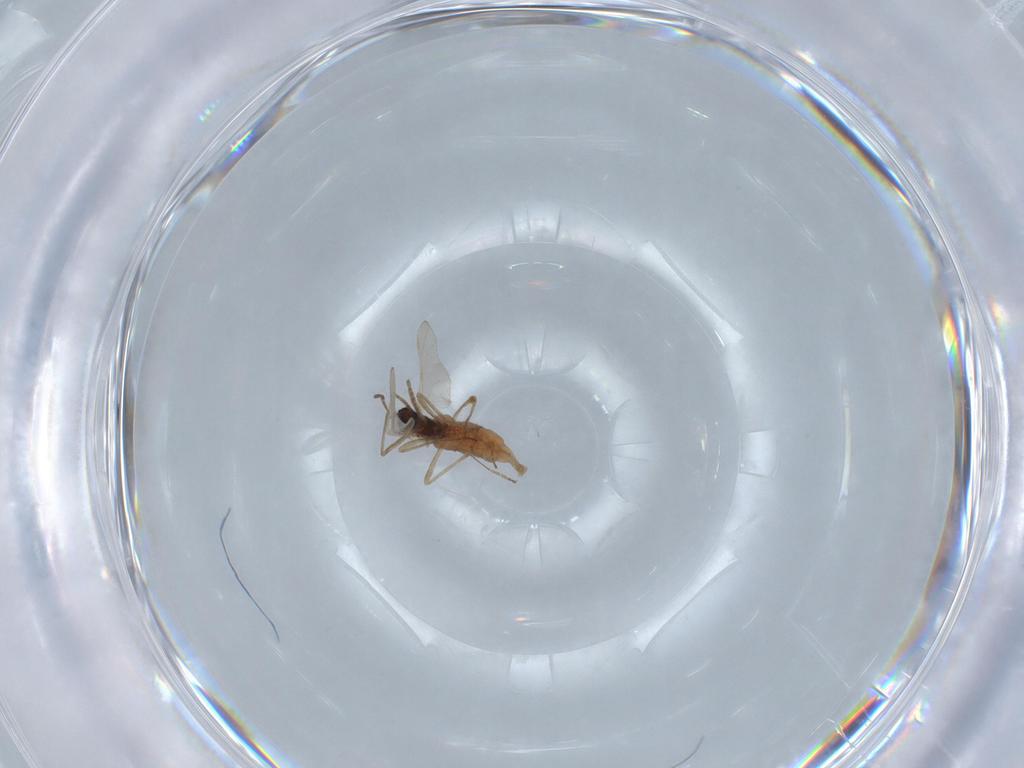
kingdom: Animalia
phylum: Arthropoda
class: Insecta
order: Diptera
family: Cecidomyiidae
